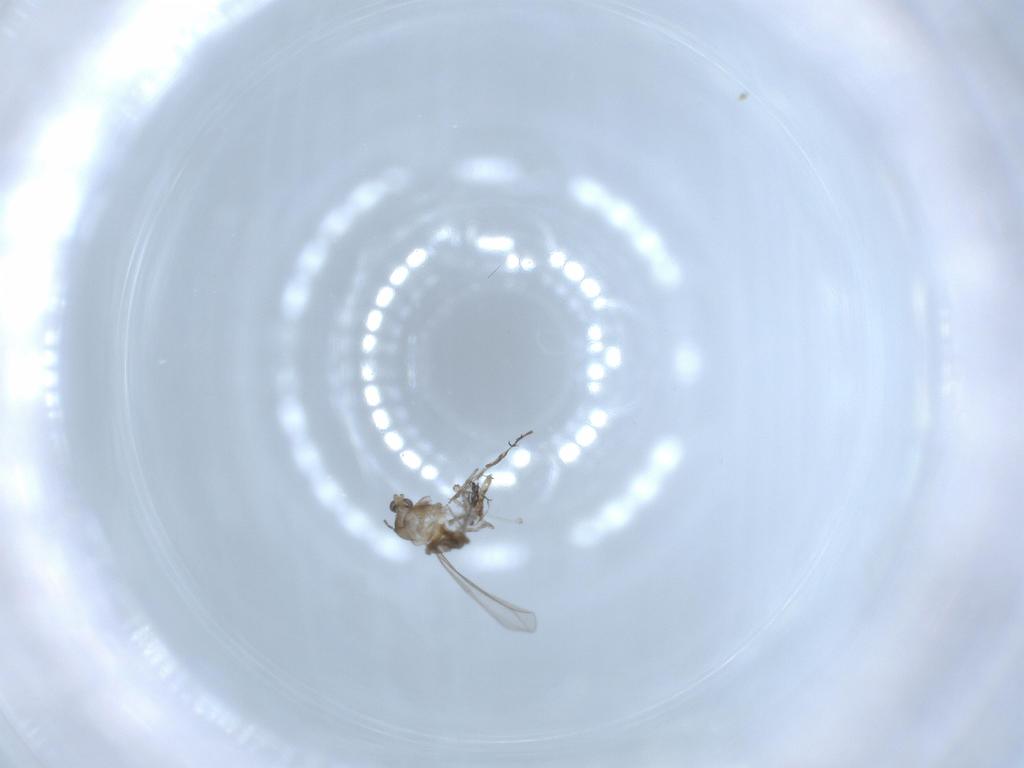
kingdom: Animalia
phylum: Arthropoda
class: Insecta
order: Diptera
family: Cecidomyiidae
